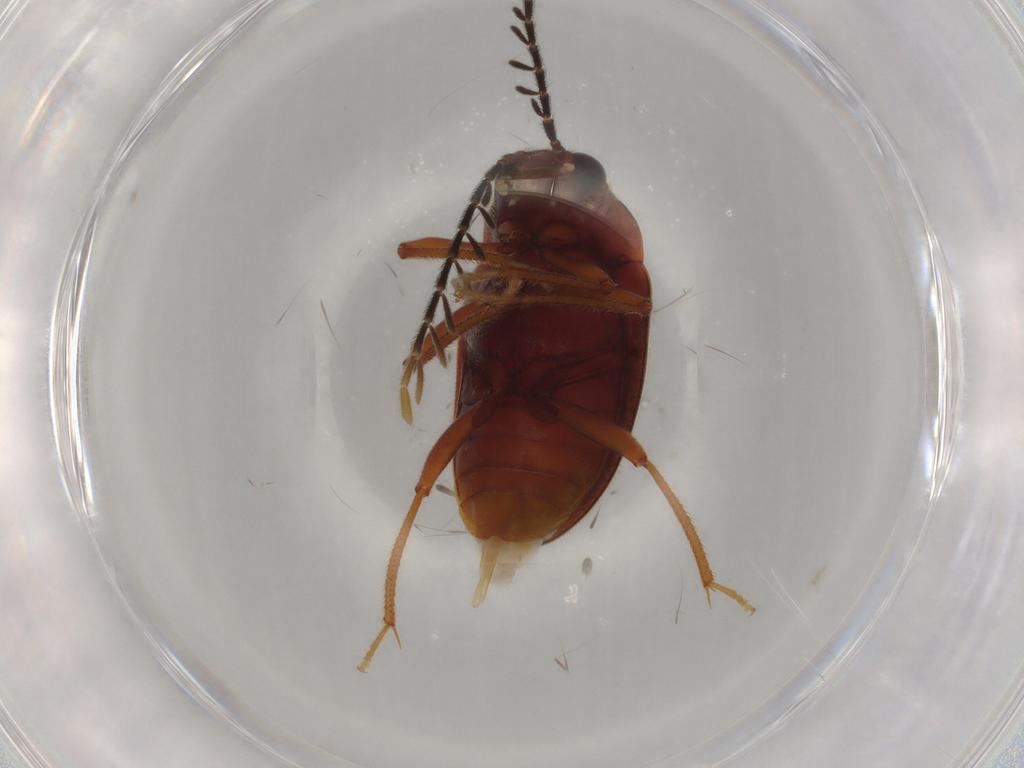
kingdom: Animalia
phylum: Arthropoda
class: Insecta
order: Coleoptera
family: Ptilodactylidae
